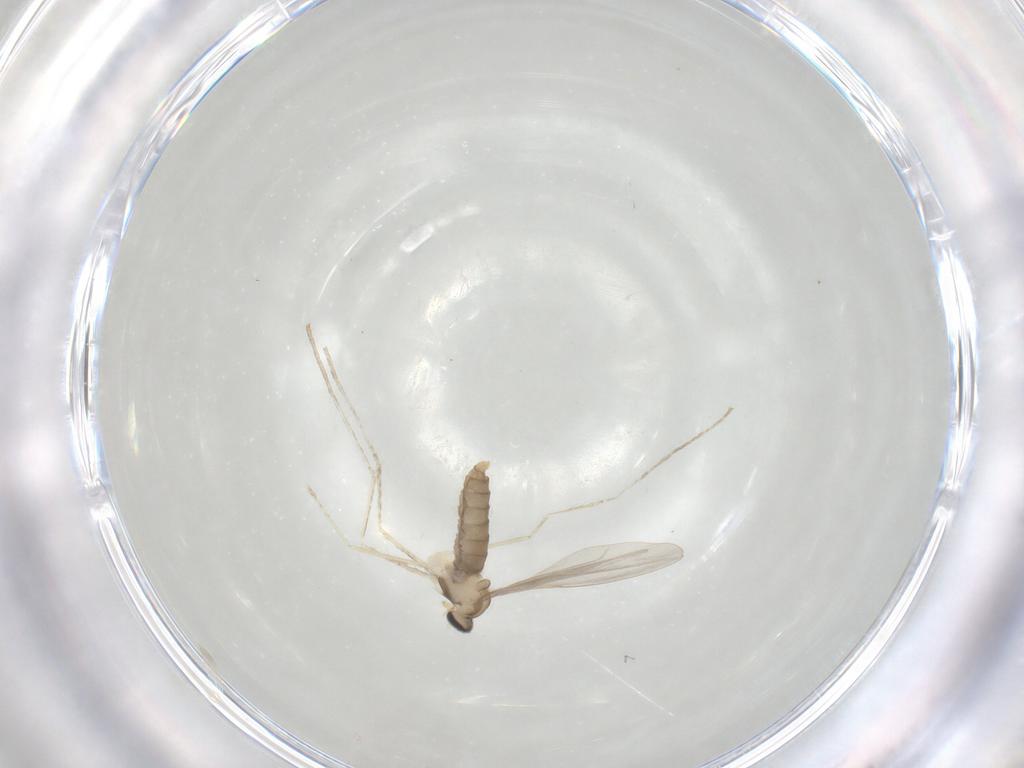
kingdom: Animalia
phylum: Arthropoda
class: Insecta
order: Diptera
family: Cecidomyiidae
